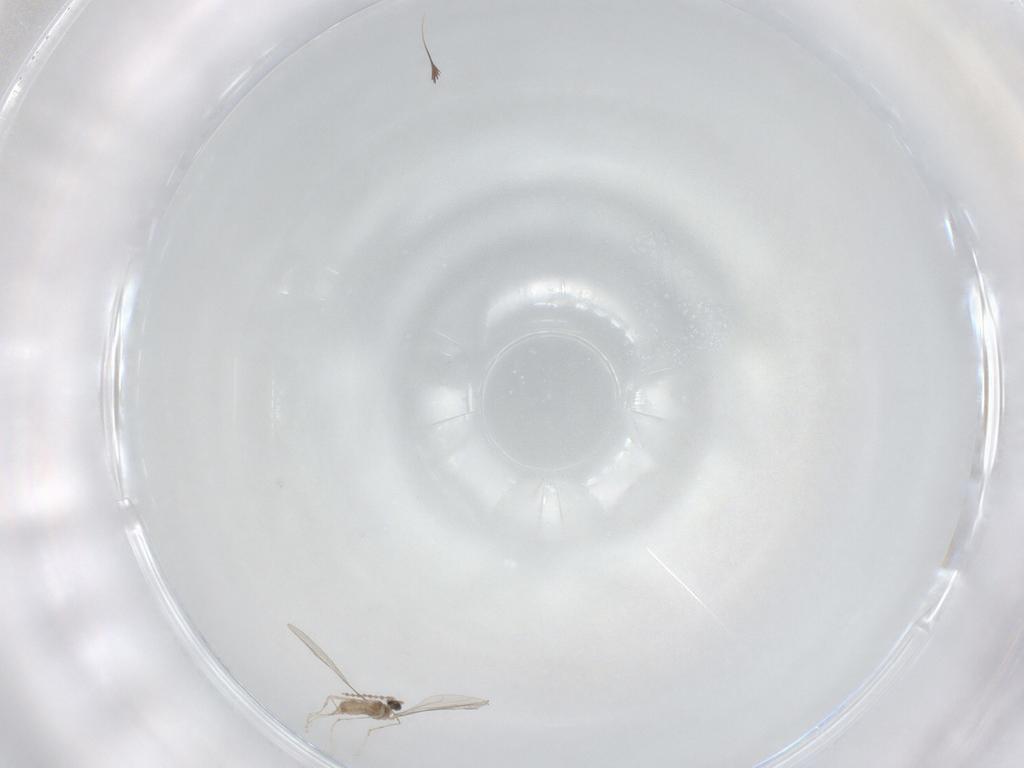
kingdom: Animalia
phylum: Arthropoda
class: Insecta
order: Diptera
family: Cecidomyiidae
